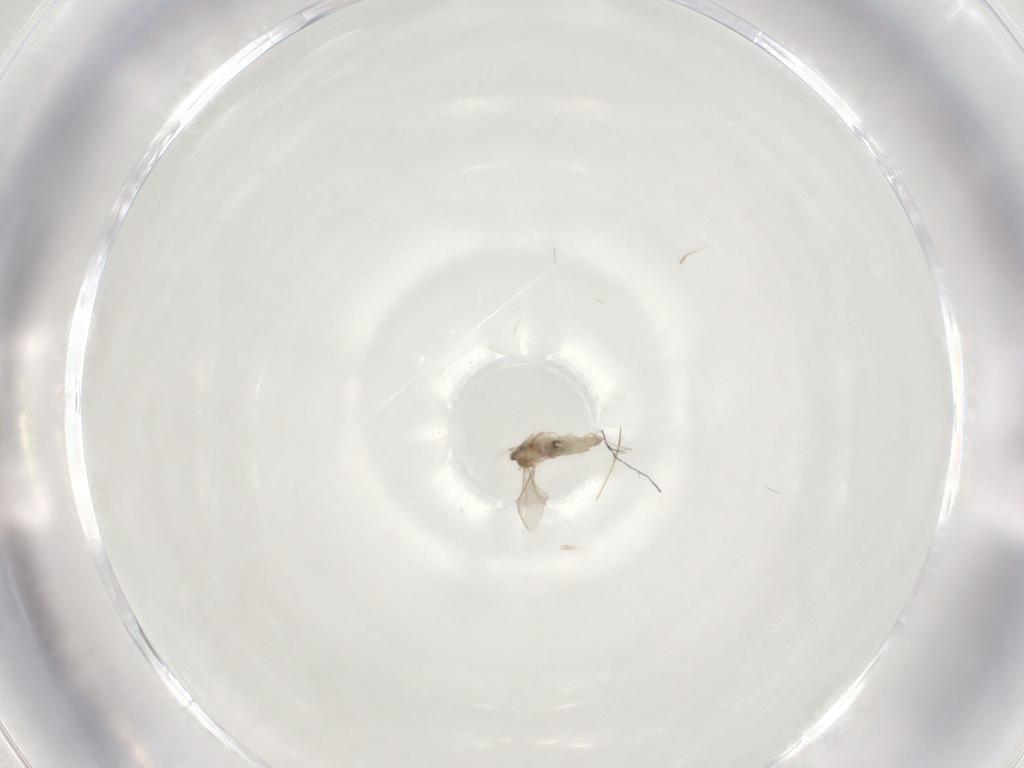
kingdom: Animalia
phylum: Arthropoda
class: Insecta
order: Diptera
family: Cecidomyiidae
